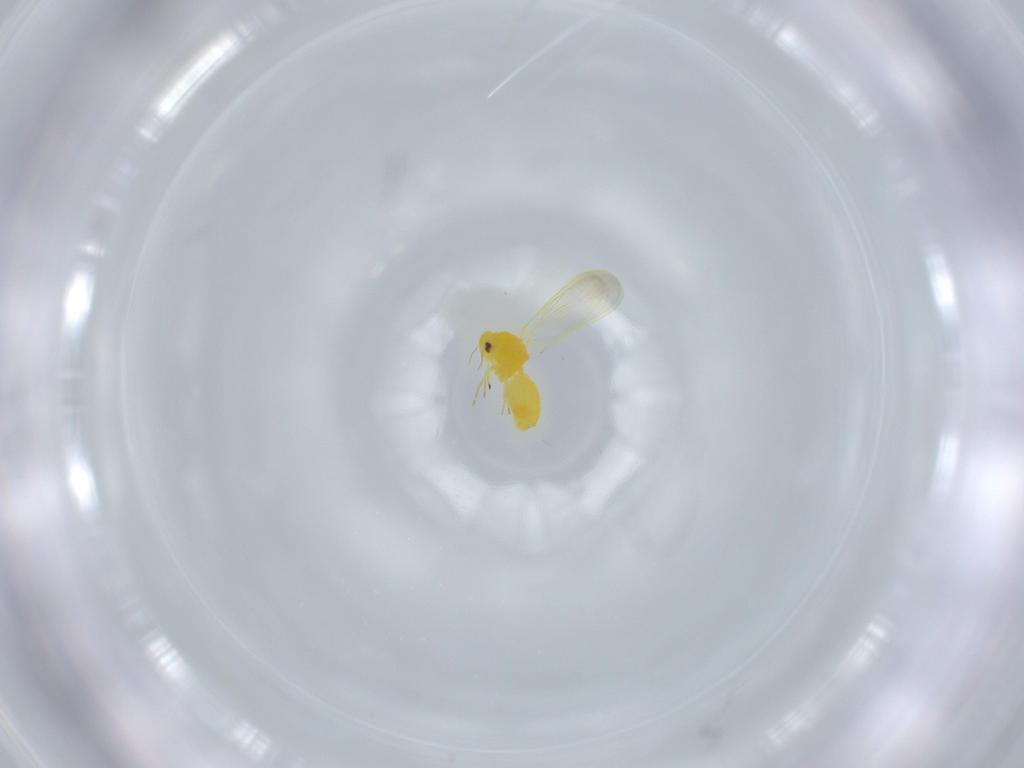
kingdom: Animalia
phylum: Arthropoda
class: Insecta
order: Hemiptera
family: Aleyrodidae
